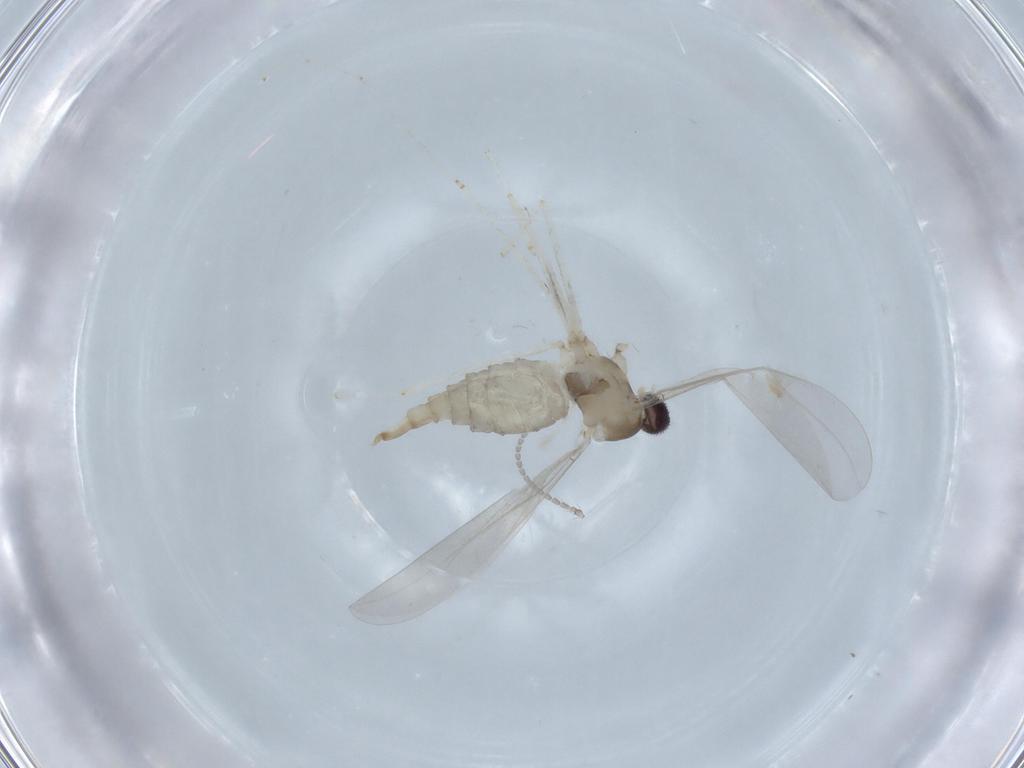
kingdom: Animalia
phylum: Arthropoda
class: Insecta
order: Diptera
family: Cecidomyiidae
